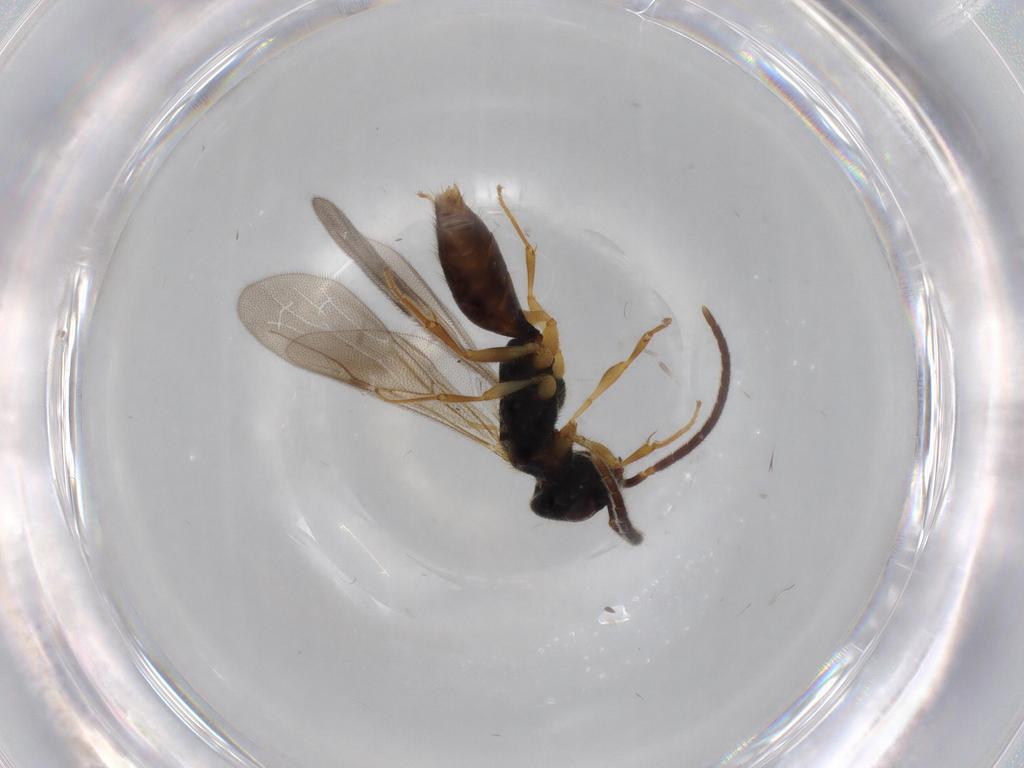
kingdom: Animalia
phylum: Arthropoda
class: Insecta
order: Hymenoptera
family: Bethylidae
